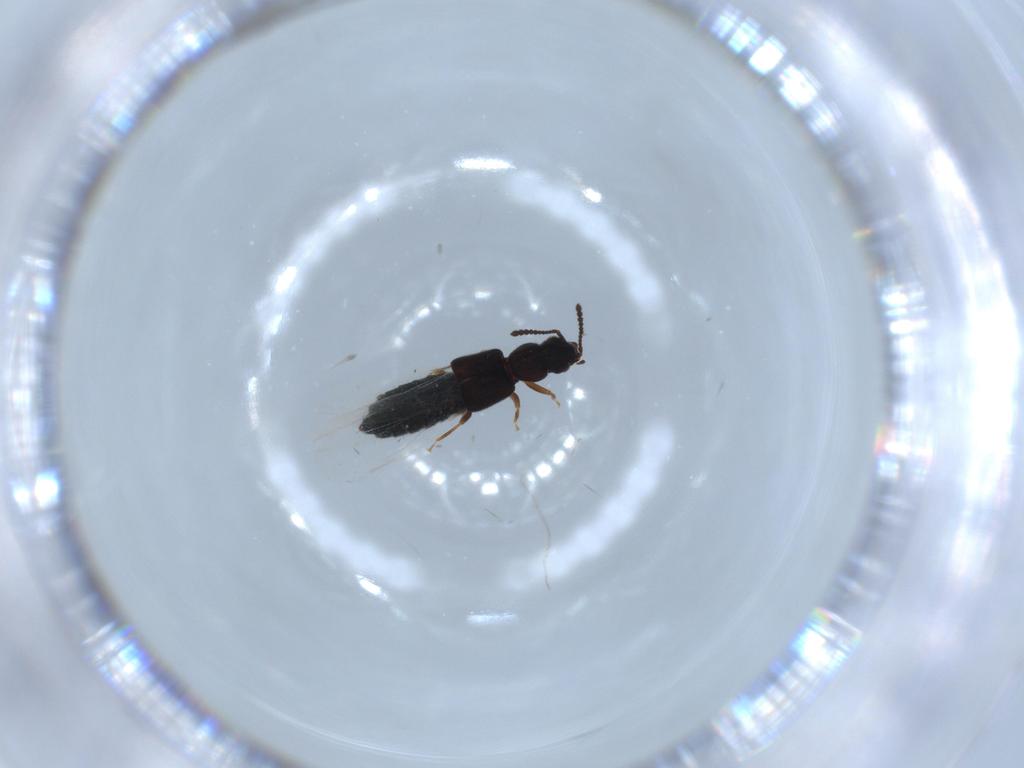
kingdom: Animalia
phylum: Arthropoda
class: Insecta
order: Coleoptera
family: Staphylinidae
